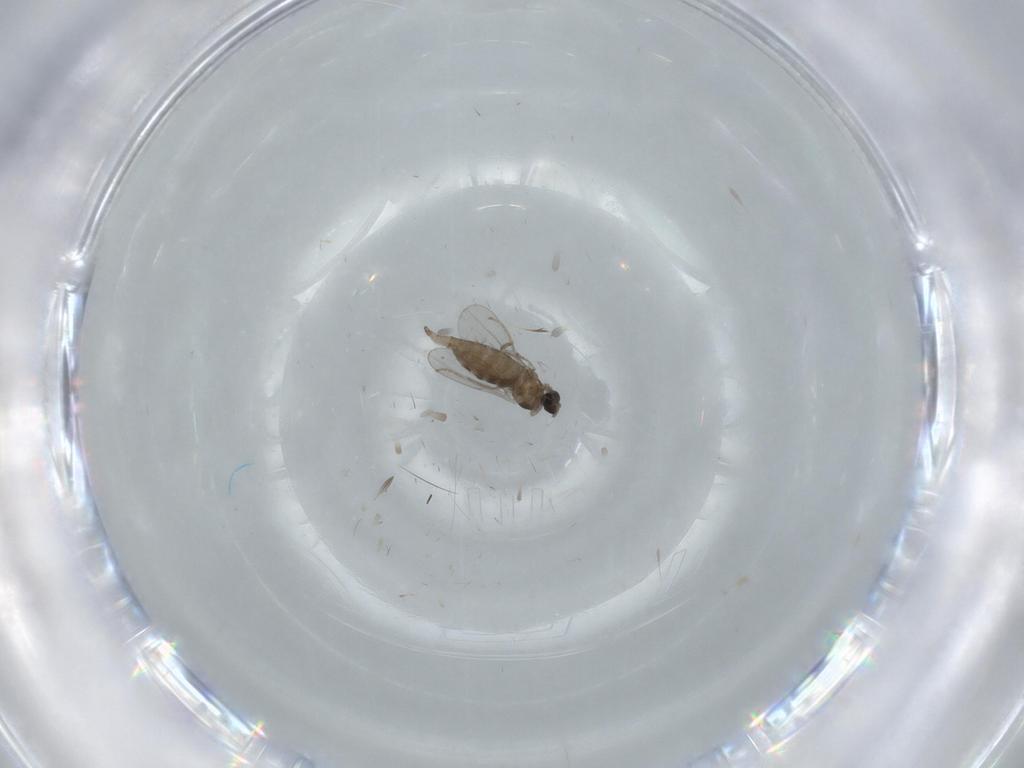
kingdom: Animalia
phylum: Arthropoda
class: Insecta
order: Diptera
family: Cecidomyiidae
